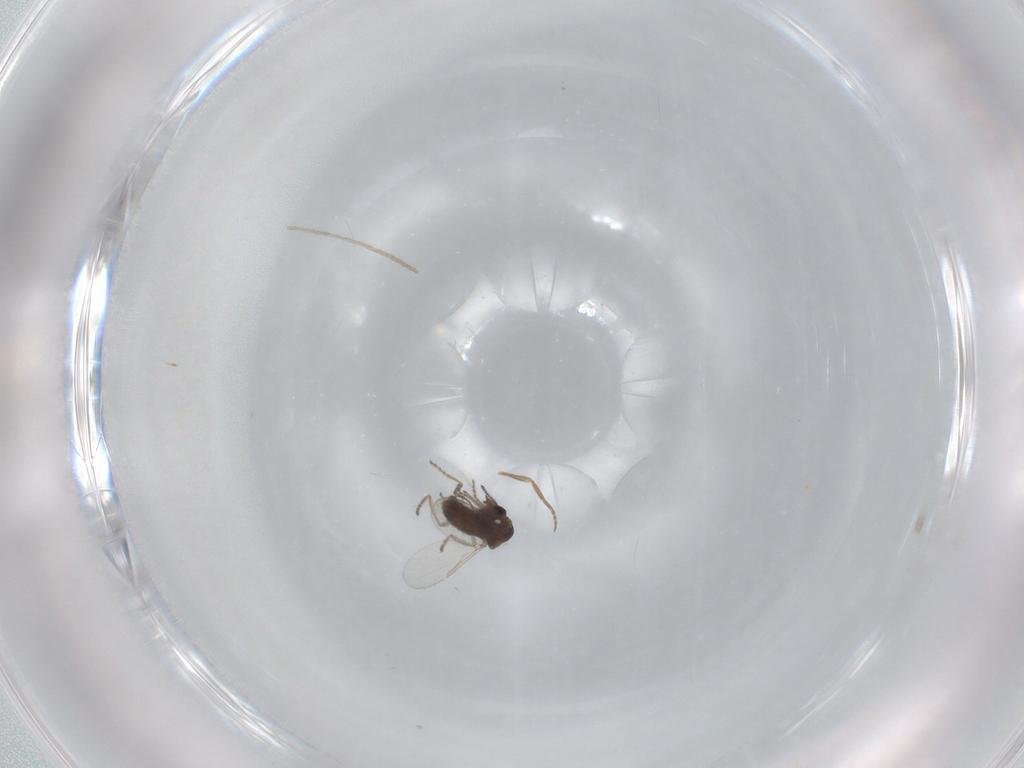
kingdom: Animalia
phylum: Arthropoda
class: Insecta
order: Diptera
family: Ceratopogonidae
